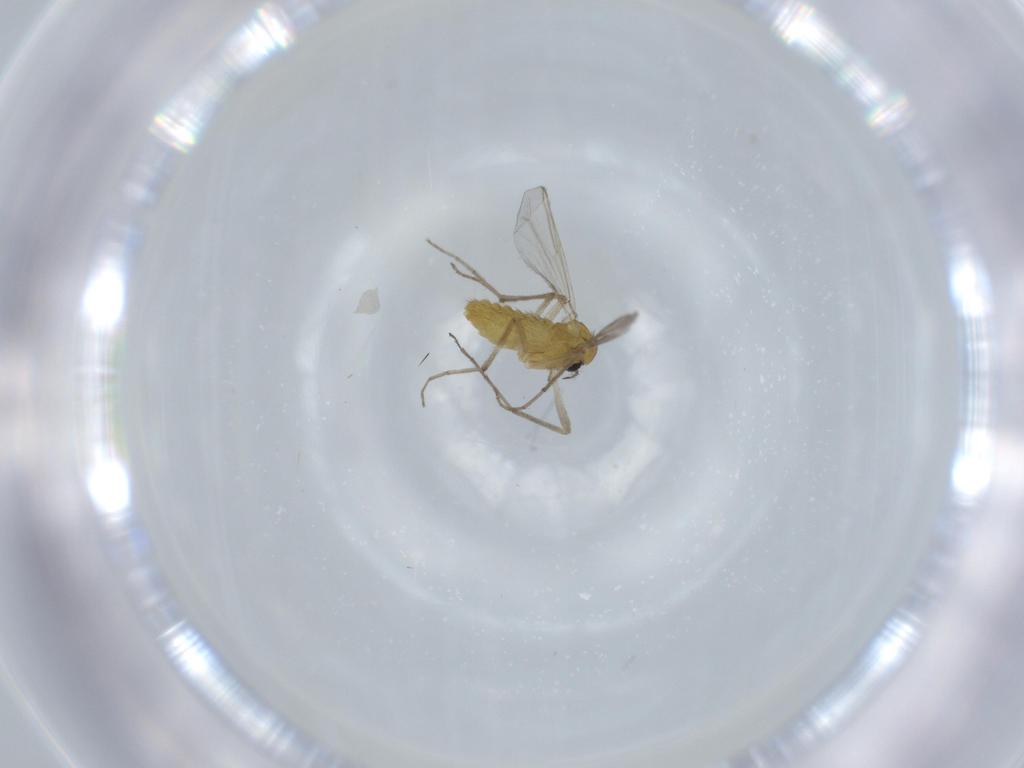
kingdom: Animalia
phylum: Arthropoda
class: Insecta
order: Diptera
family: Chironomidae
